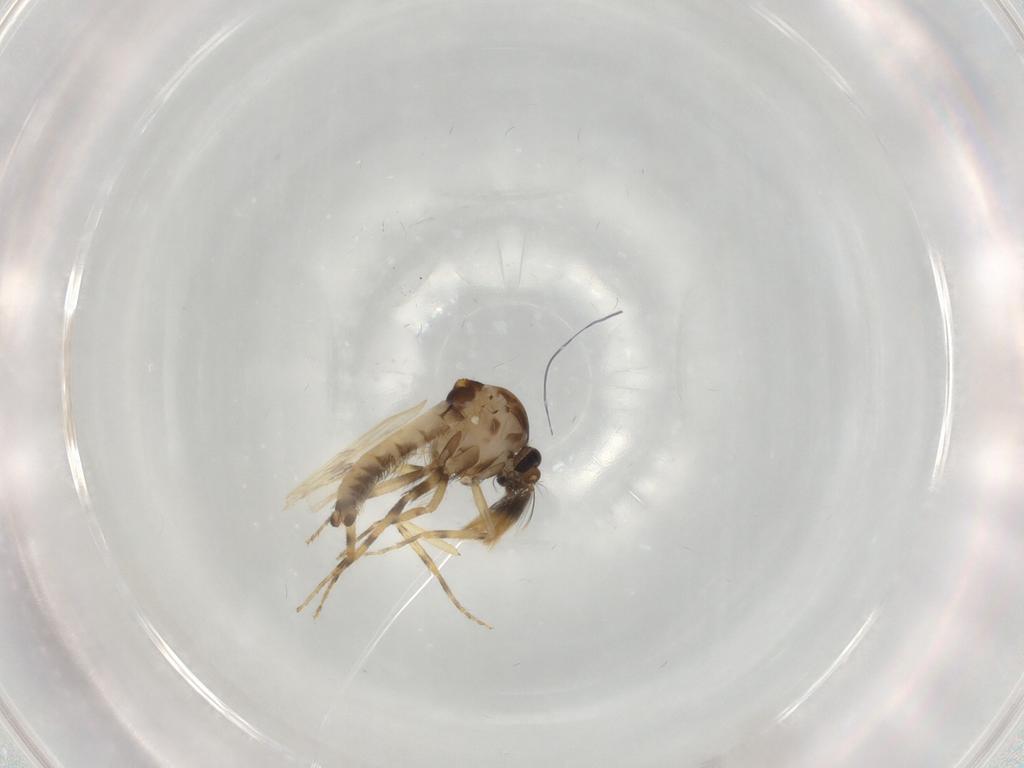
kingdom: Animalia
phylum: Arthropoda
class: Insecta
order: Diptera
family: Ceratopogonidae
